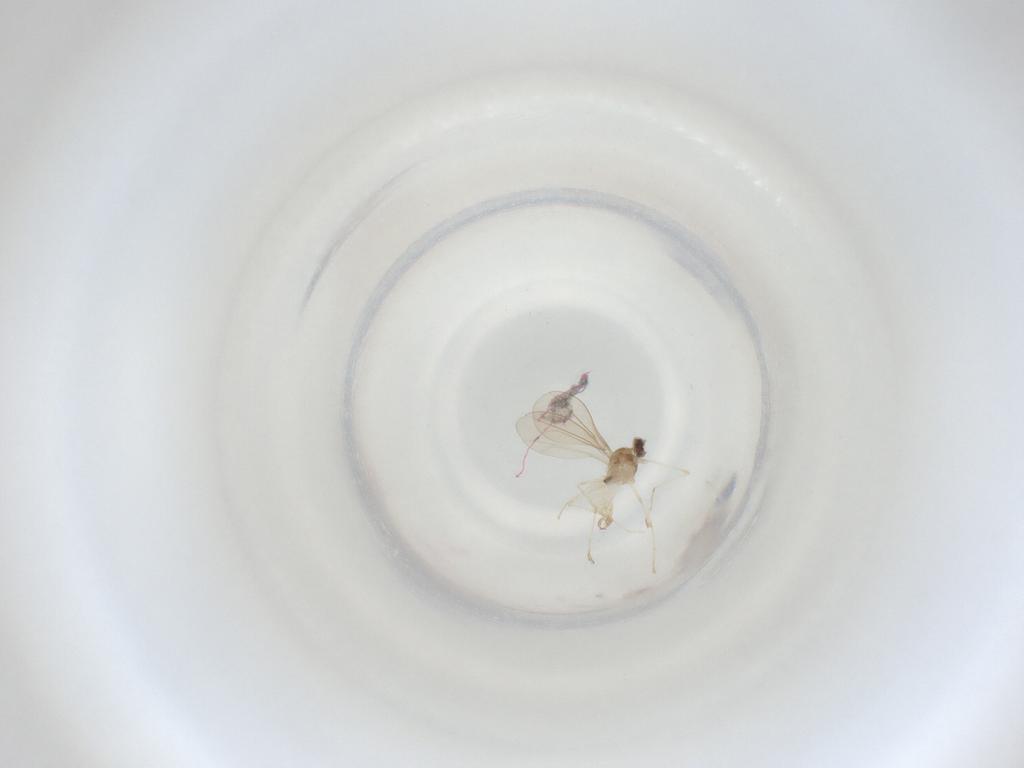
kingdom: Animalia
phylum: Arthropoda
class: Insecta
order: Diptera
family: Cecidomyiidae
